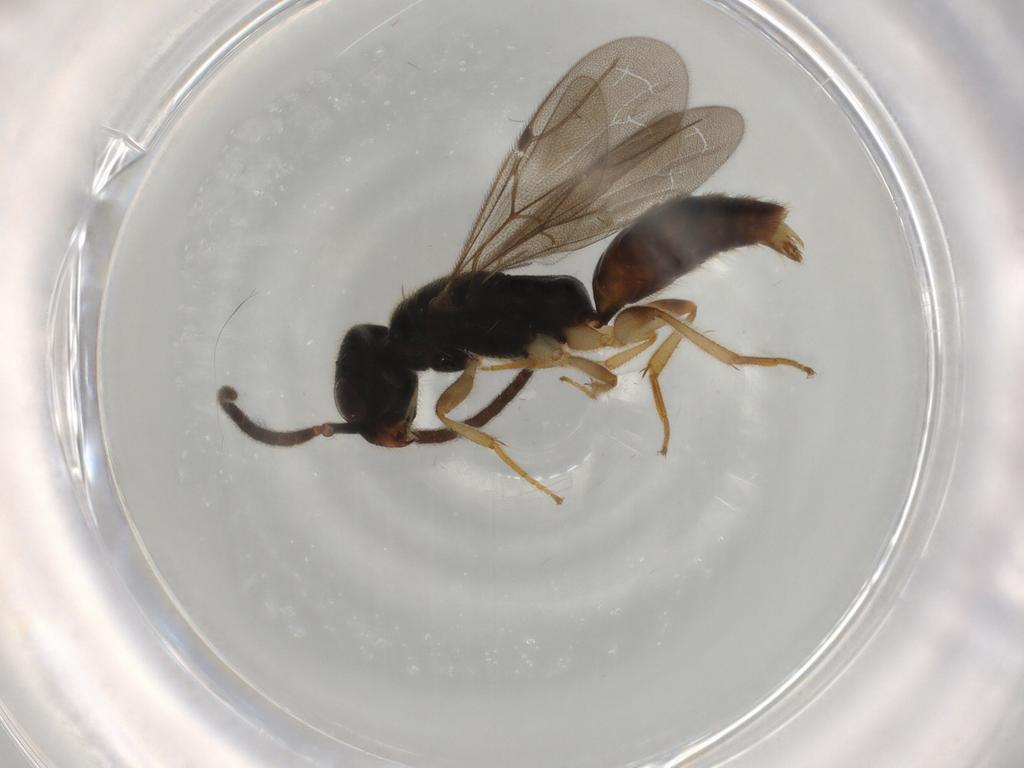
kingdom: Animalia
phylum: Arthropoda
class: Insecta
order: Hymenoptera
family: Bethylidae
